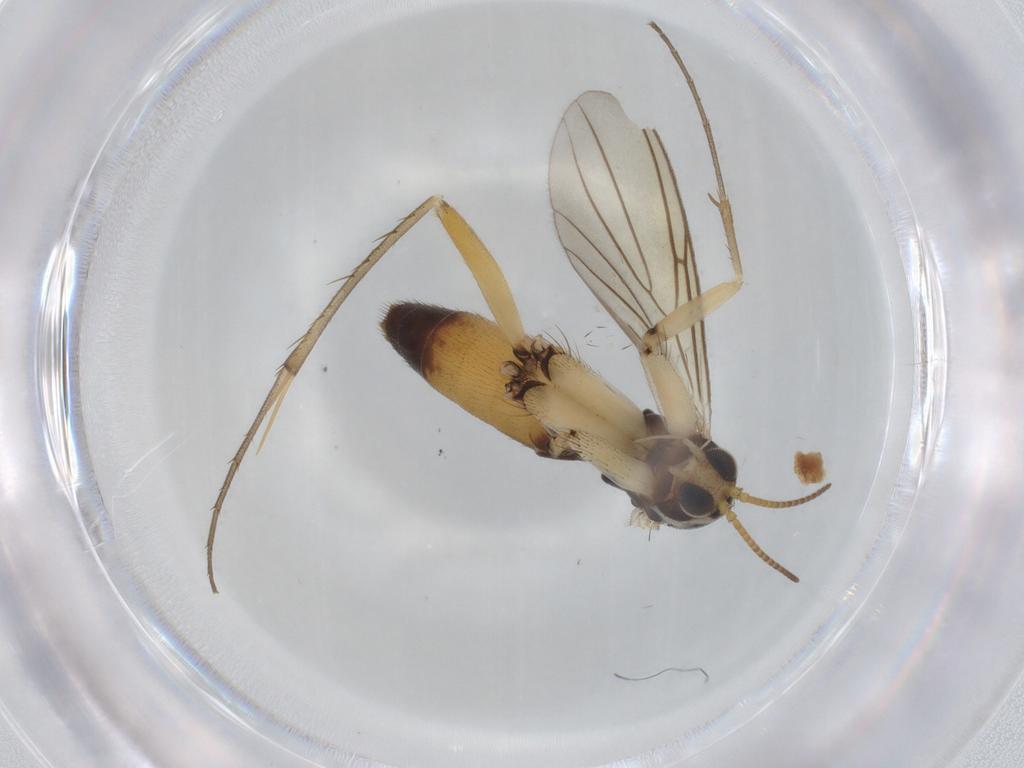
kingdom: Animalia
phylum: Arthropoda
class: Insecta
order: Diptera
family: Mycetophilidae
